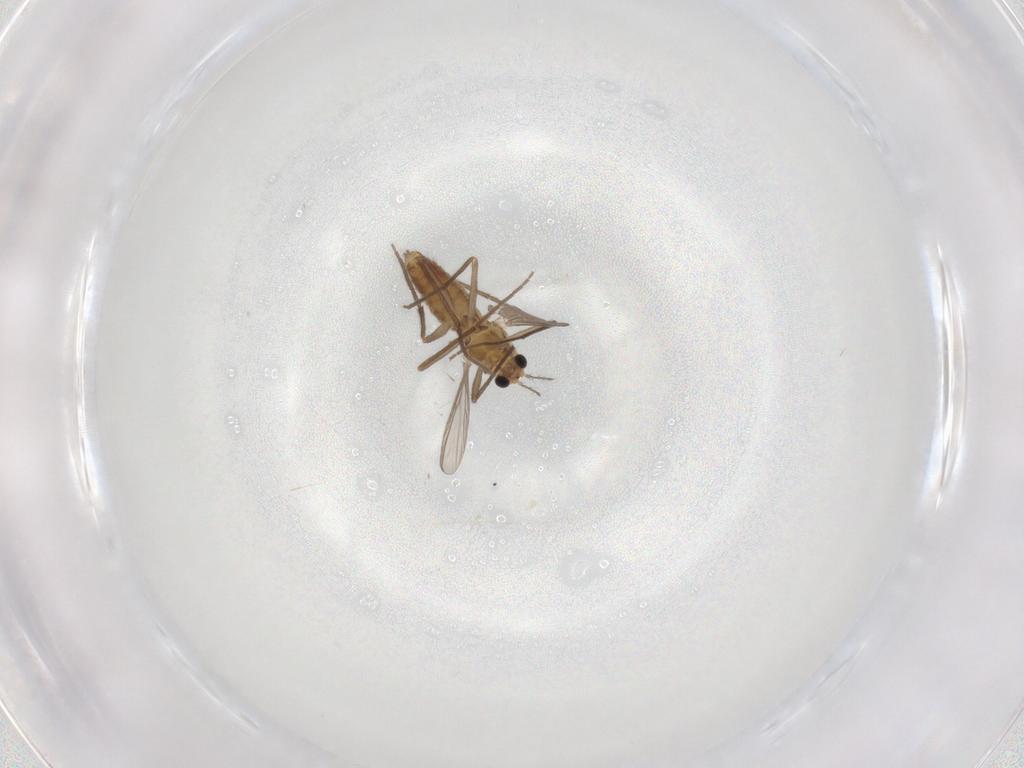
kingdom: Animalia
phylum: Arthropoda
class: Insecta
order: Diptera
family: Chironomidae
